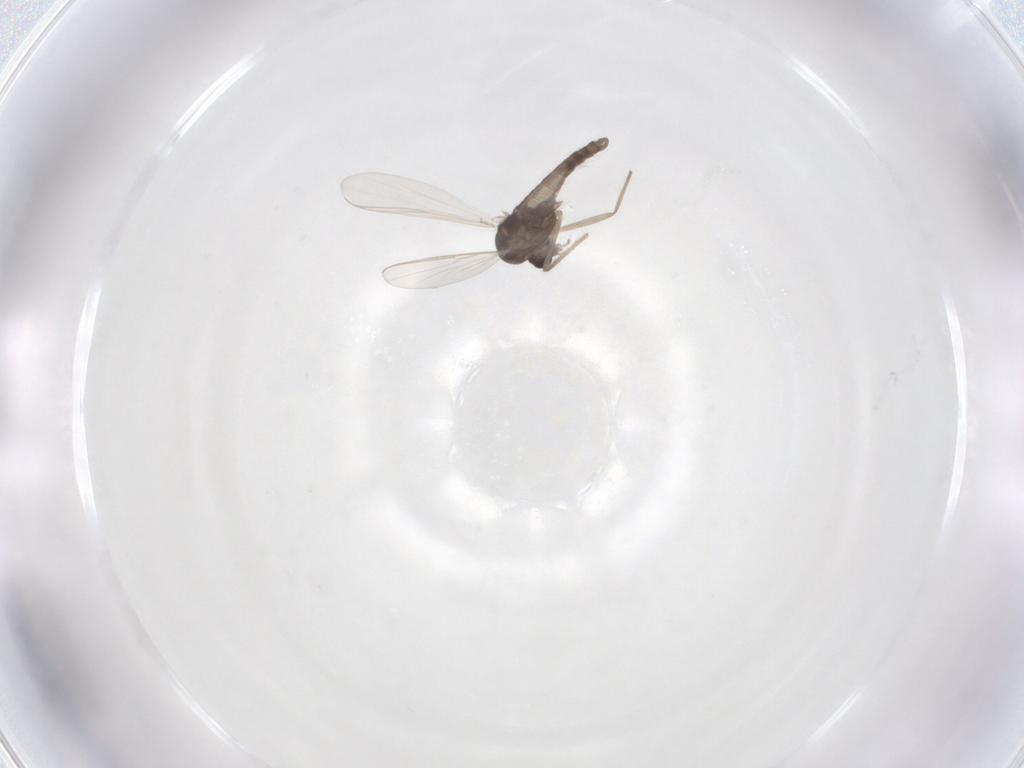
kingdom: Animalia
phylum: Arthropoda
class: Insecta
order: Diptera
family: Chironomidae
